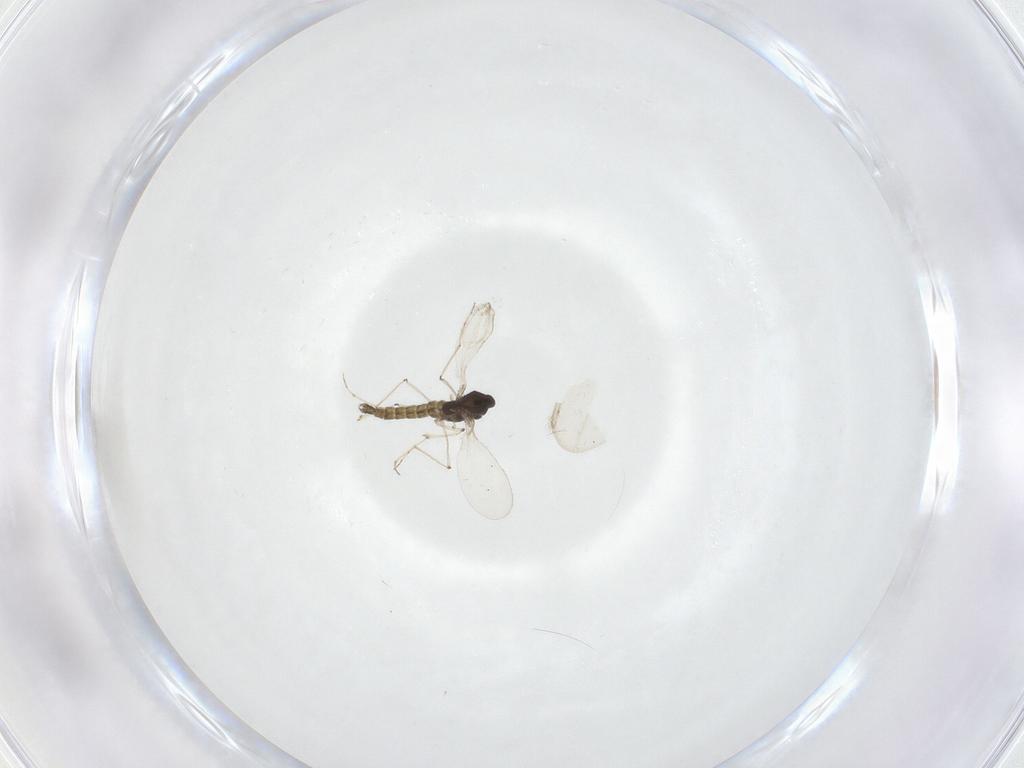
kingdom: Animalia
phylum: Arthropoda
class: Insecta
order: Diptera
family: Chironomidae
